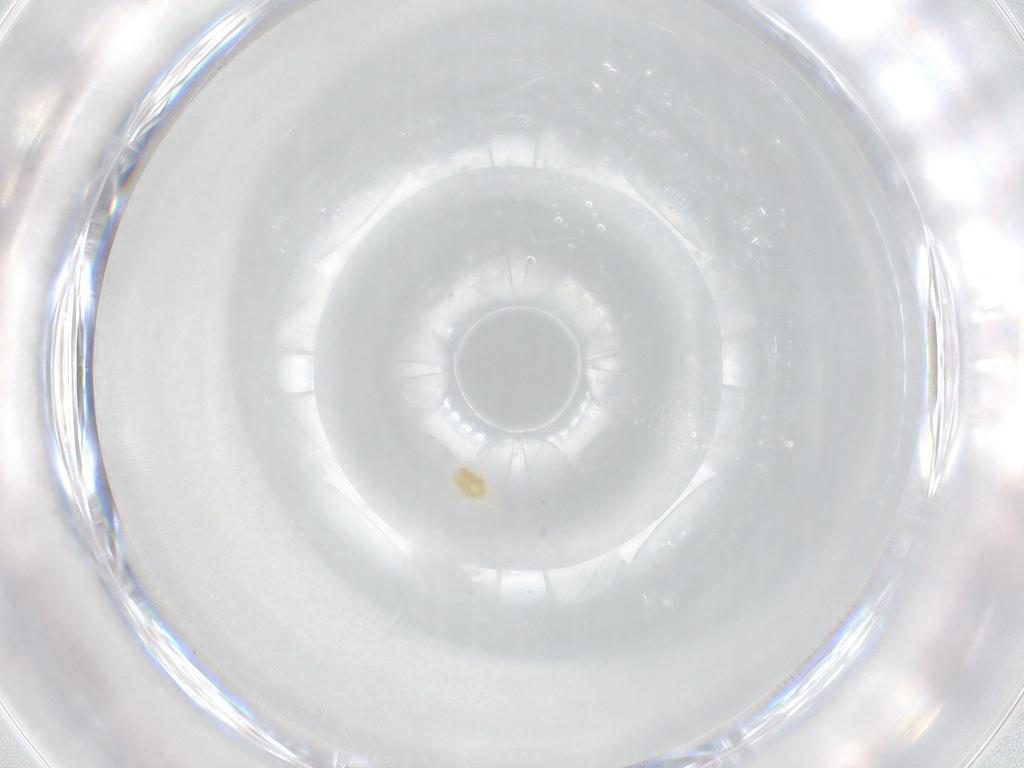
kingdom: Animalia
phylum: Arthropoda
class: Arachnida
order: Trombidiformes
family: Eupodidae
